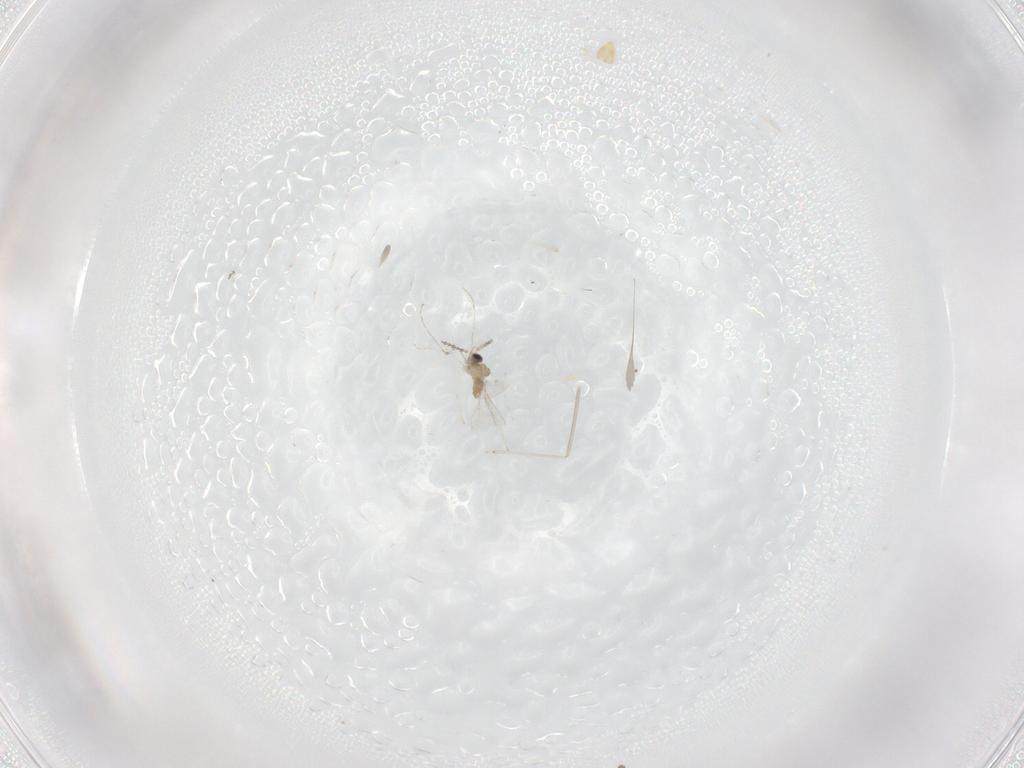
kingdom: Animalia
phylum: Arthropoda
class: Insecta
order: Diptera
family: Cecidomyiidae
